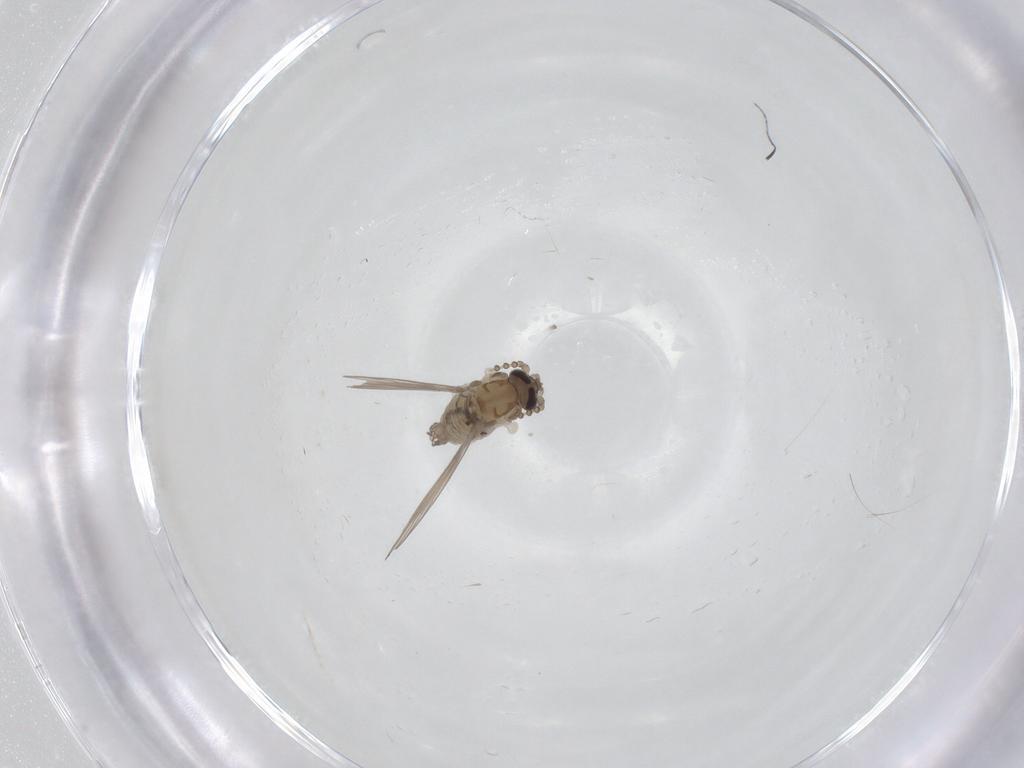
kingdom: Animalia
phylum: Arthropoda
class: Insecta
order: Diptera
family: Psychodidae
